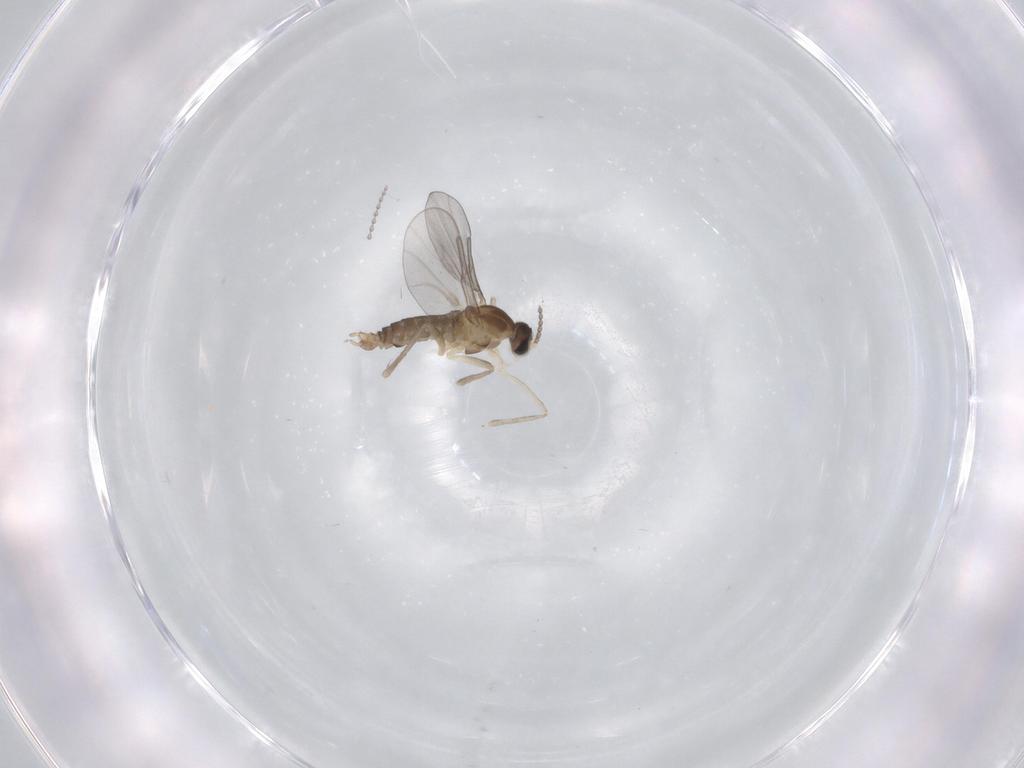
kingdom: Animalia
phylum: Arthropoda
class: Insecta
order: Diptera
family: Cecidomyiidae
